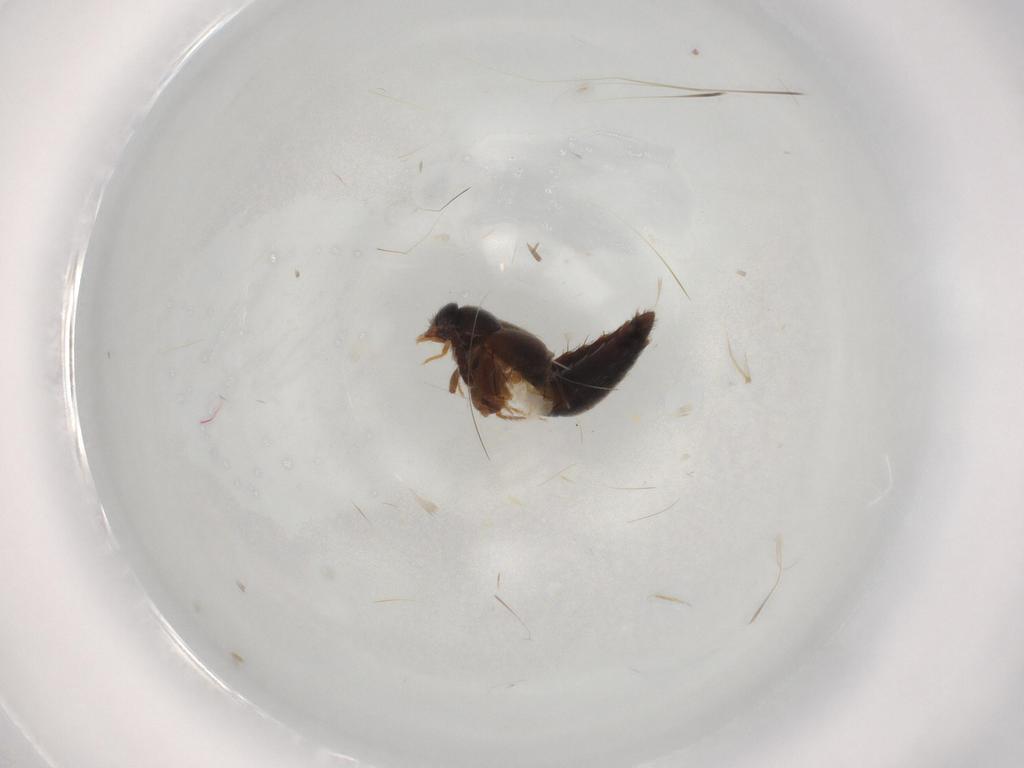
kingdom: Animalia
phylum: Arthropoda
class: Insecta
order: Coleoptera
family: Staphylinidae
